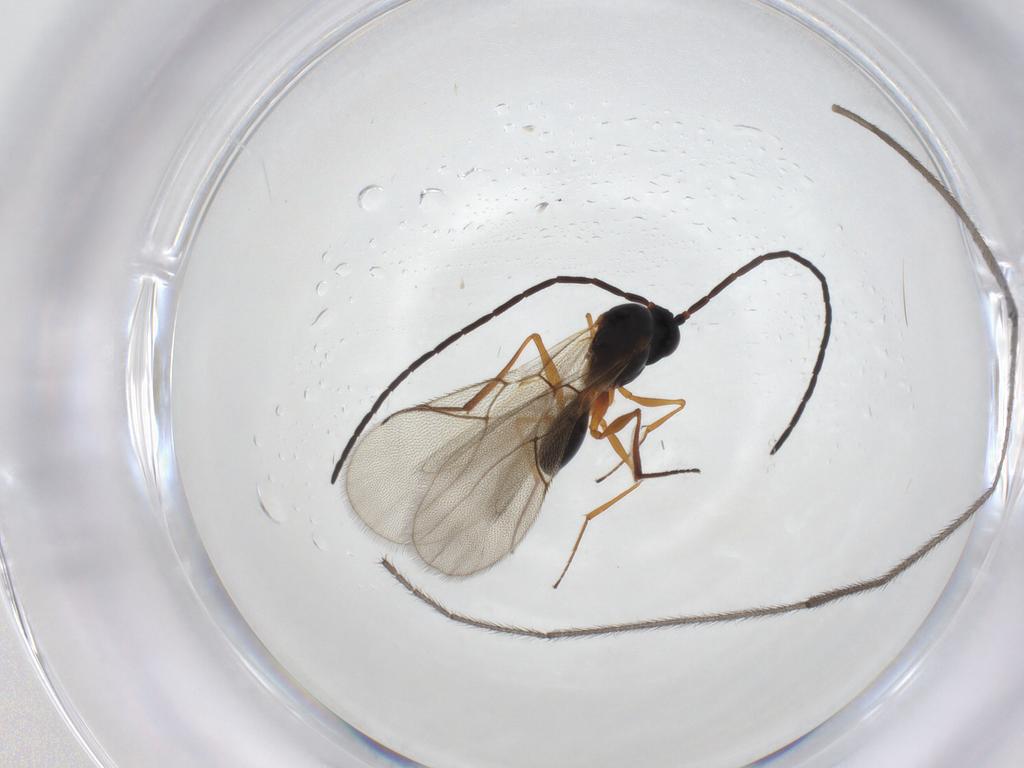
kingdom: Animalia
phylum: Arthropoda
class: Insecta
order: Hymenoptera
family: Figitidae
